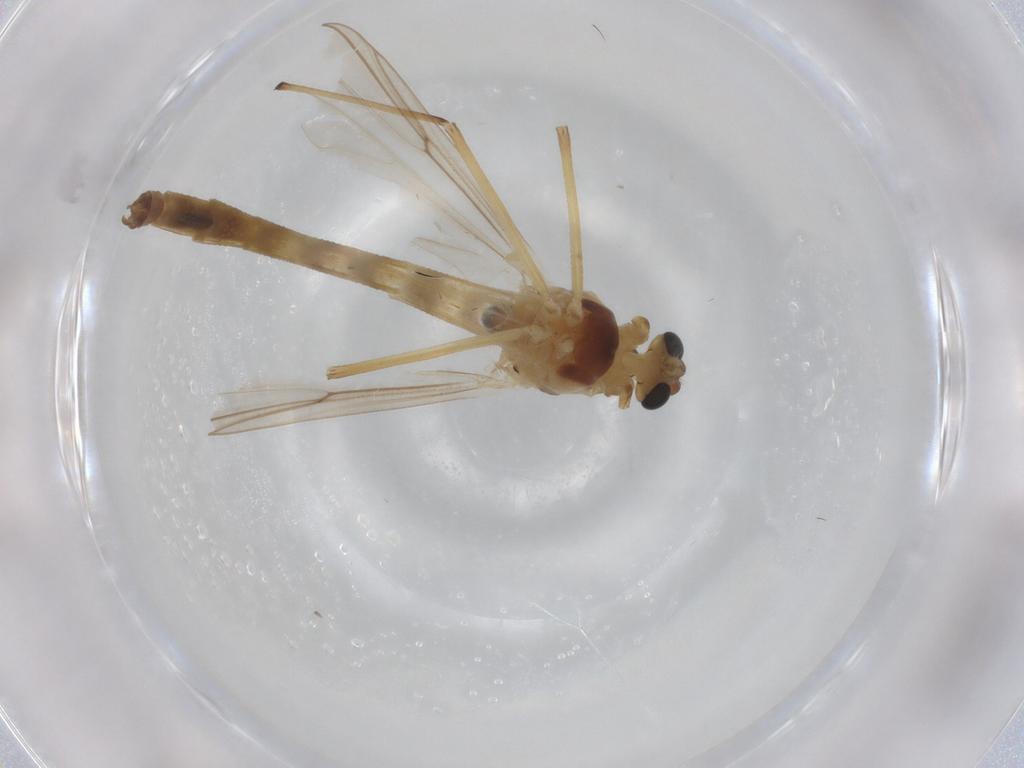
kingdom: Animalia
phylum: Arthropoda
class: Insecta
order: Diptera
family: Chironomidae
